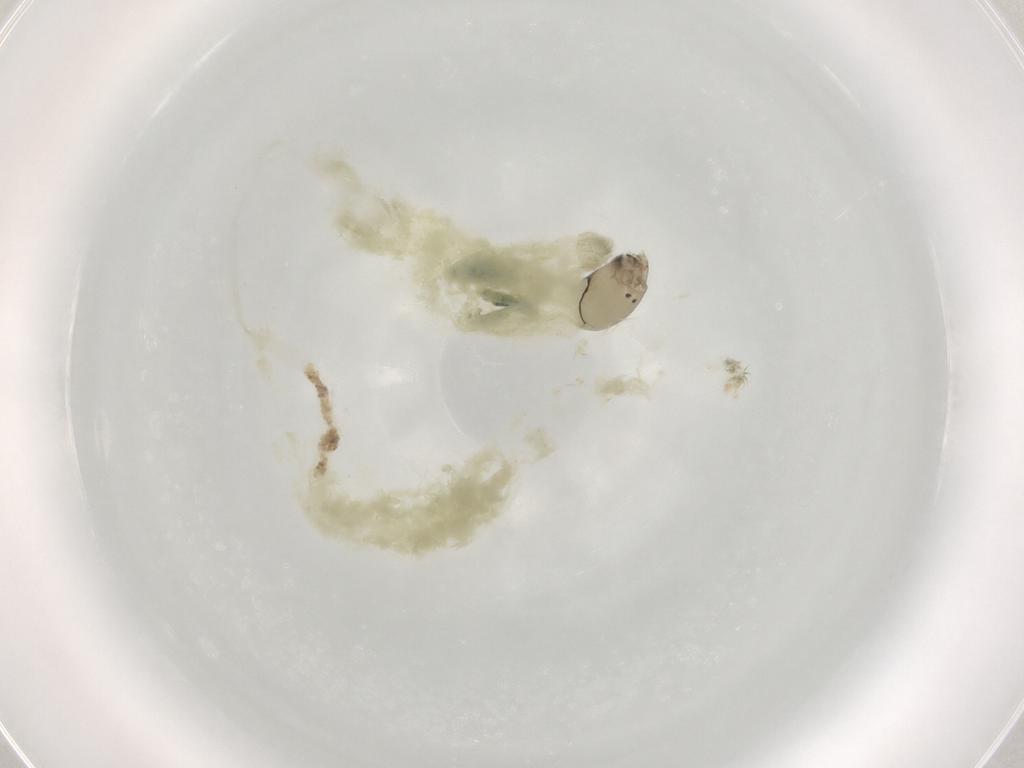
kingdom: Animalia
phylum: Arthropoda
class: Insecta
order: Diptera
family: Chironomidae
